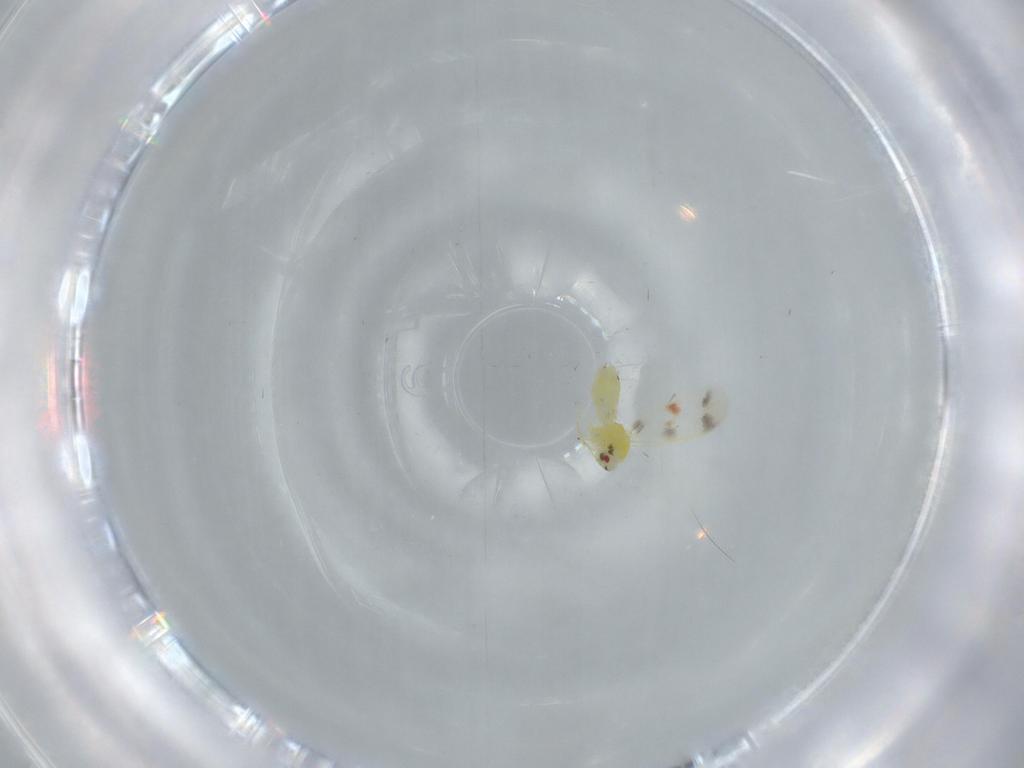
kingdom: Animalia
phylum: Arthropoda
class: Insecta
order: Hemiptera
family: Aleyrodidae
